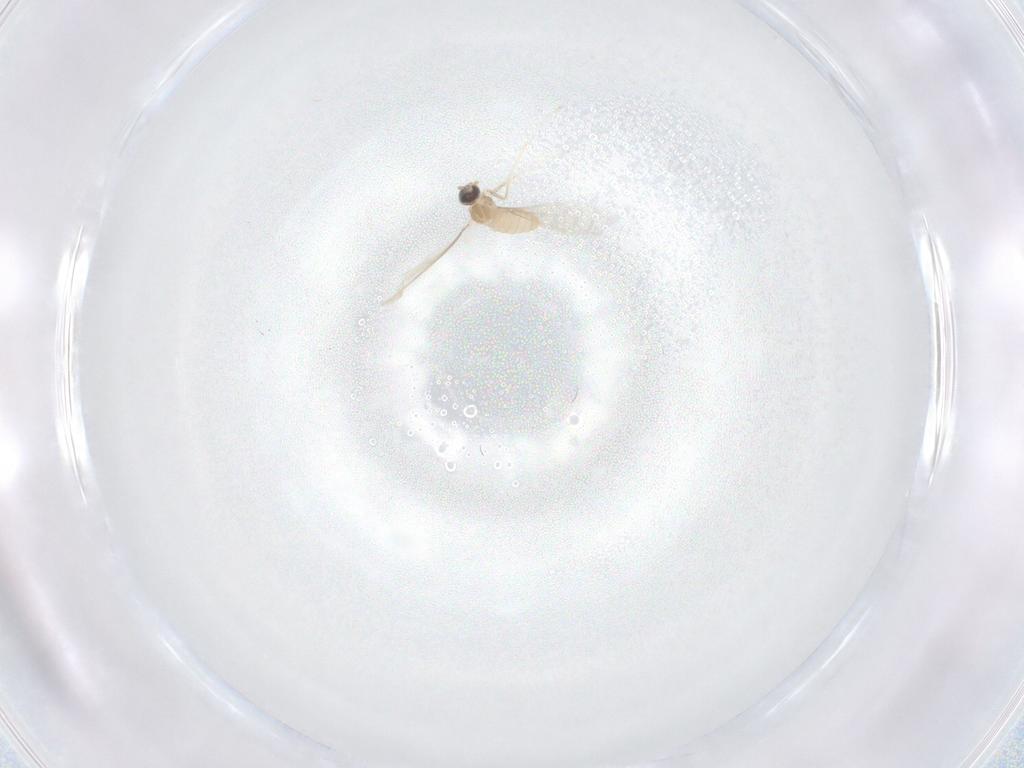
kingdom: Animalia
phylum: Arthropoda
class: Insecta
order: Diptera
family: Cecidomyiidae
